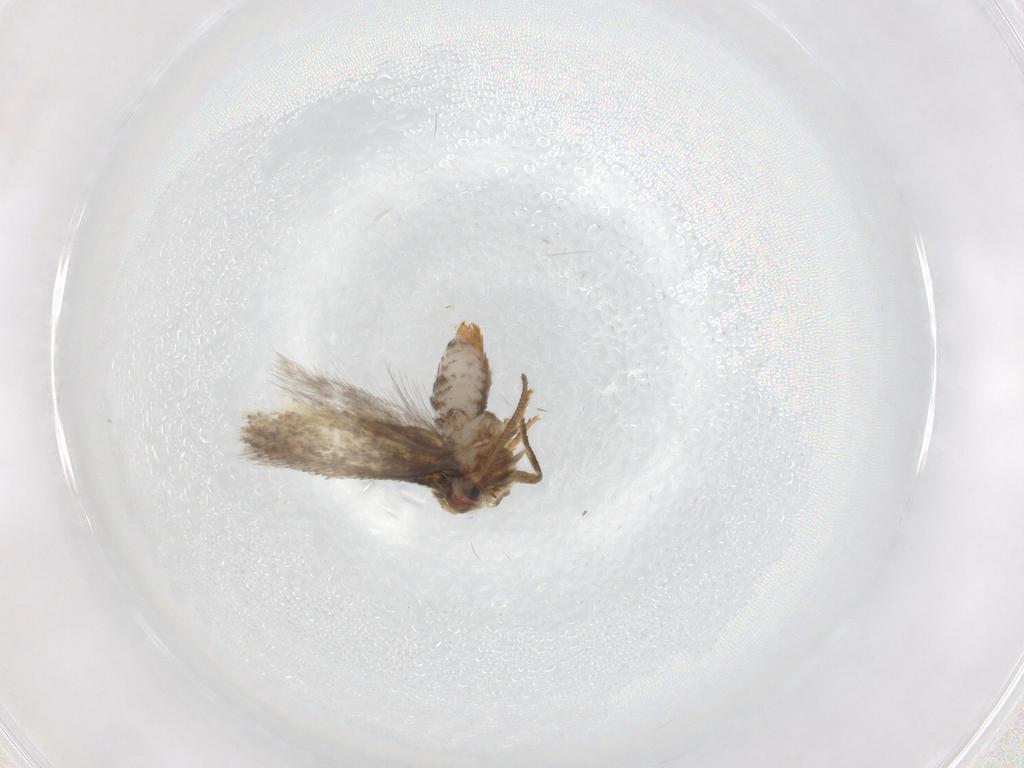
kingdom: Animalia
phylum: Arthropoda
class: Insecta
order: Lepidoptera
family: Nepticulidae
